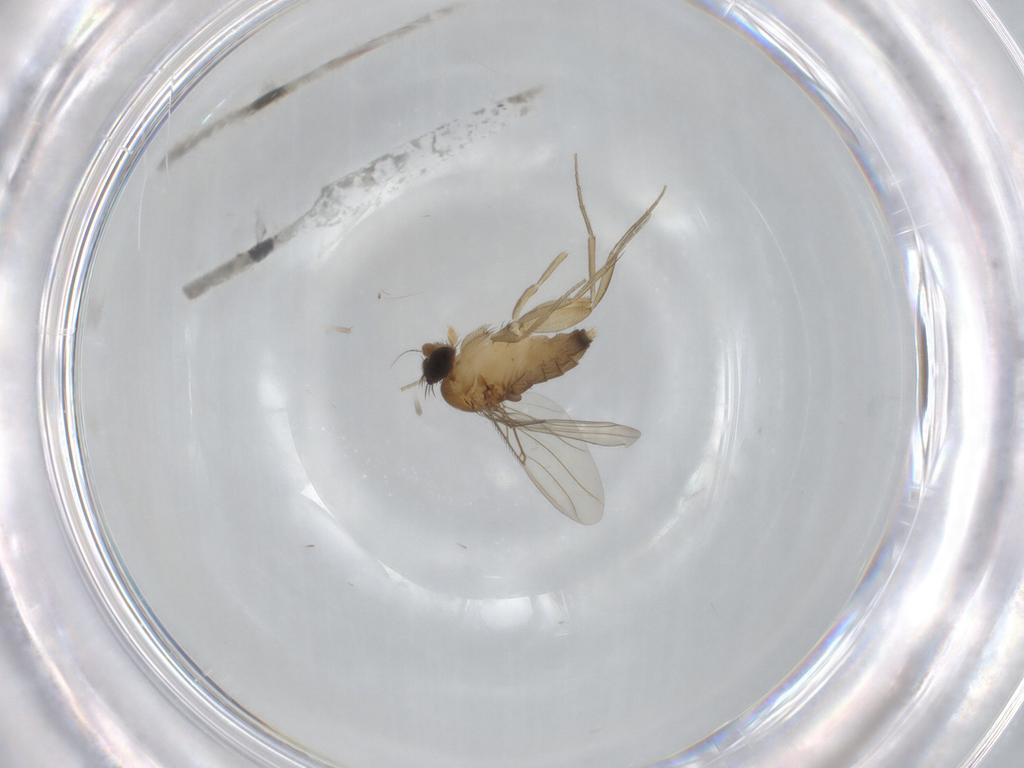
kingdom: Animalia
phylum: Arthropoda
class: Insecta
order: Diptera
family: Phoridae
